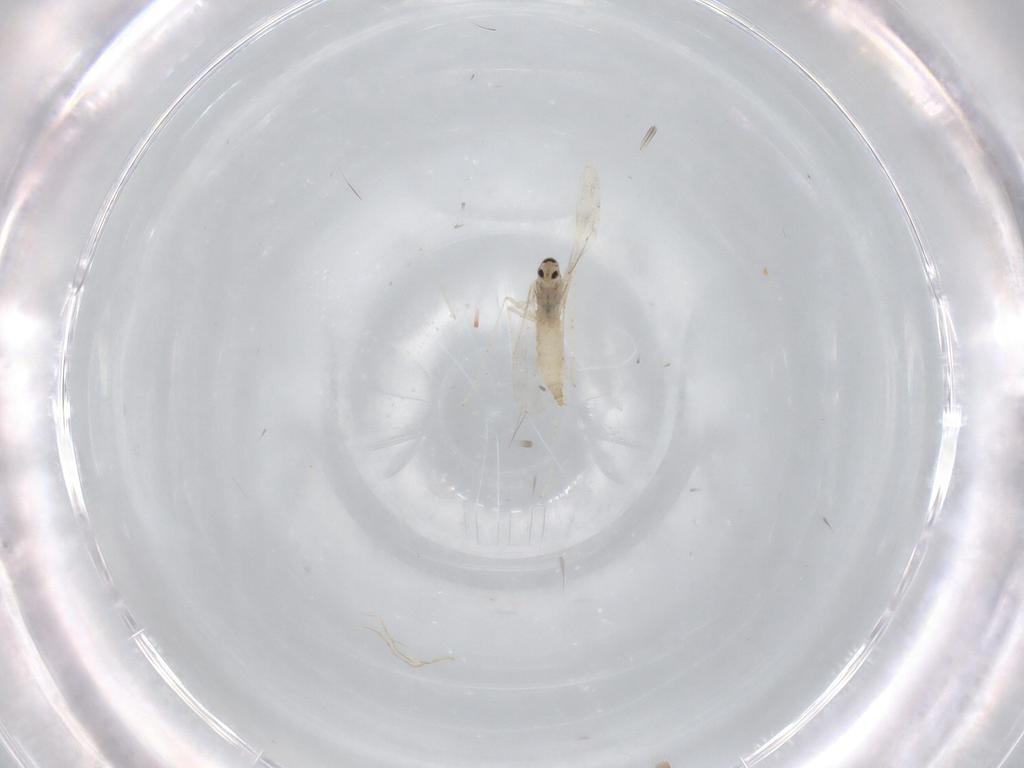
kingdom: Animalia
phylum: Arthropoda
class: Insecta
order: Diptera
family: Cecidomyiidae
